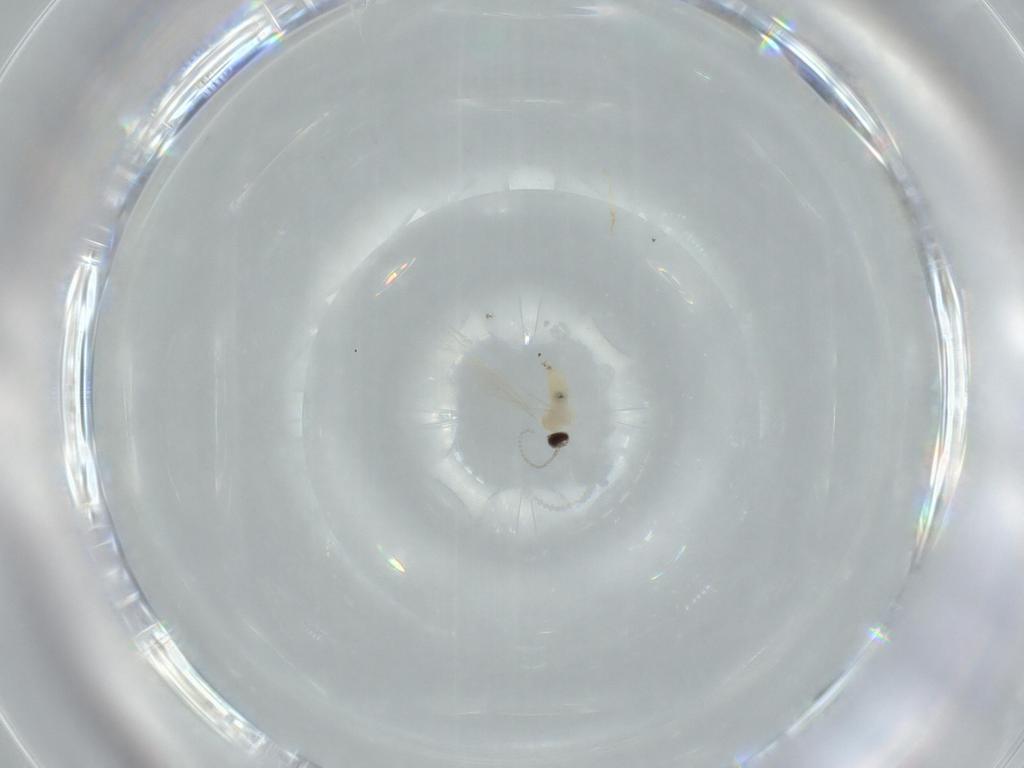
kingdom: Animalia
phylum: Arthropoda
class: Insecta
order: Diptera
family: Cecidomyiidae
